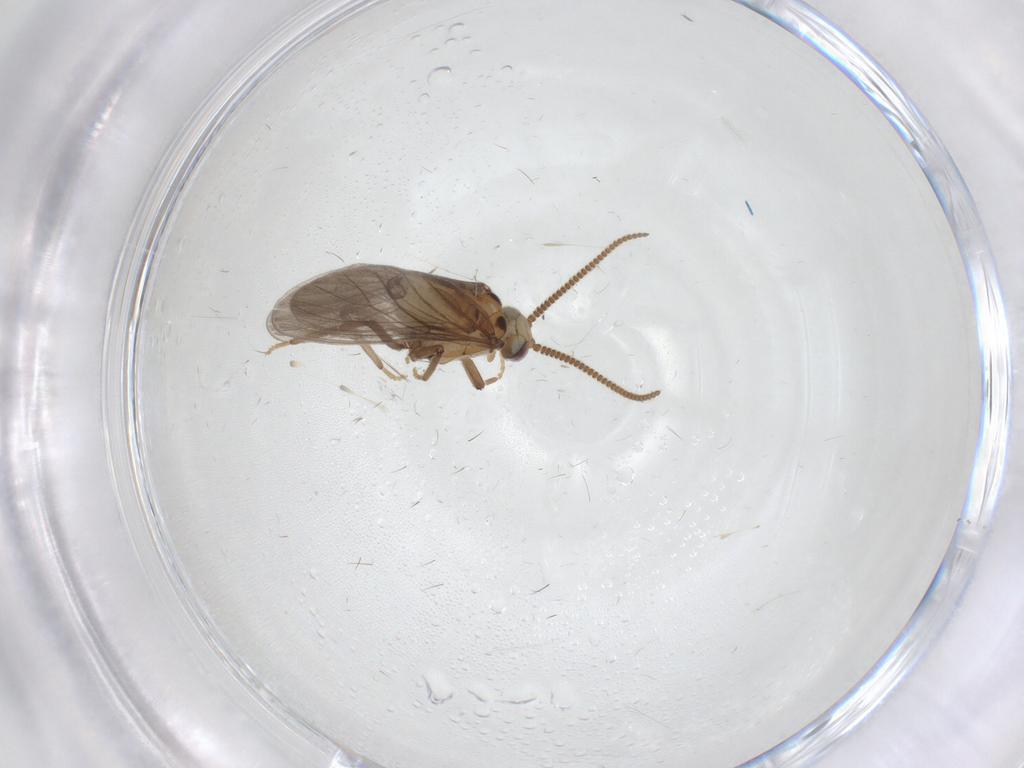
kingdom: Animalia
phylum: Arthropoda
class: Insecta
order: Neuroptera
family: Coniopterygidae
